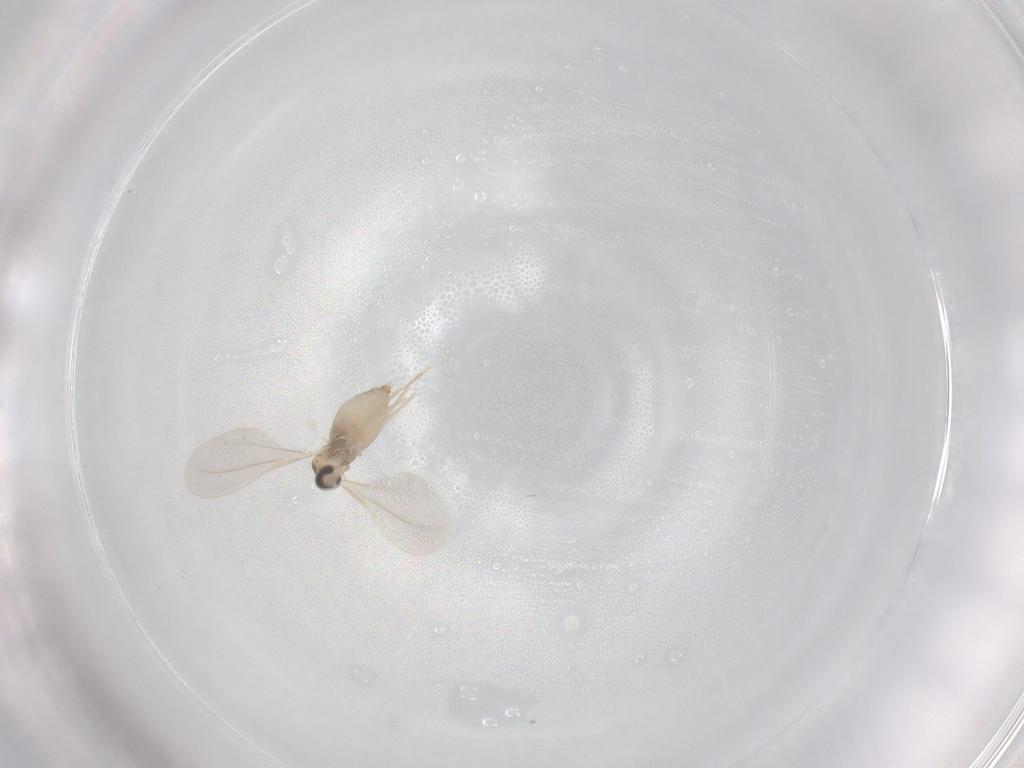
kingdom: Animalia
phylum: Arthropoda
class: Insecta
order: Diptera
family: Cecidomyiidae
